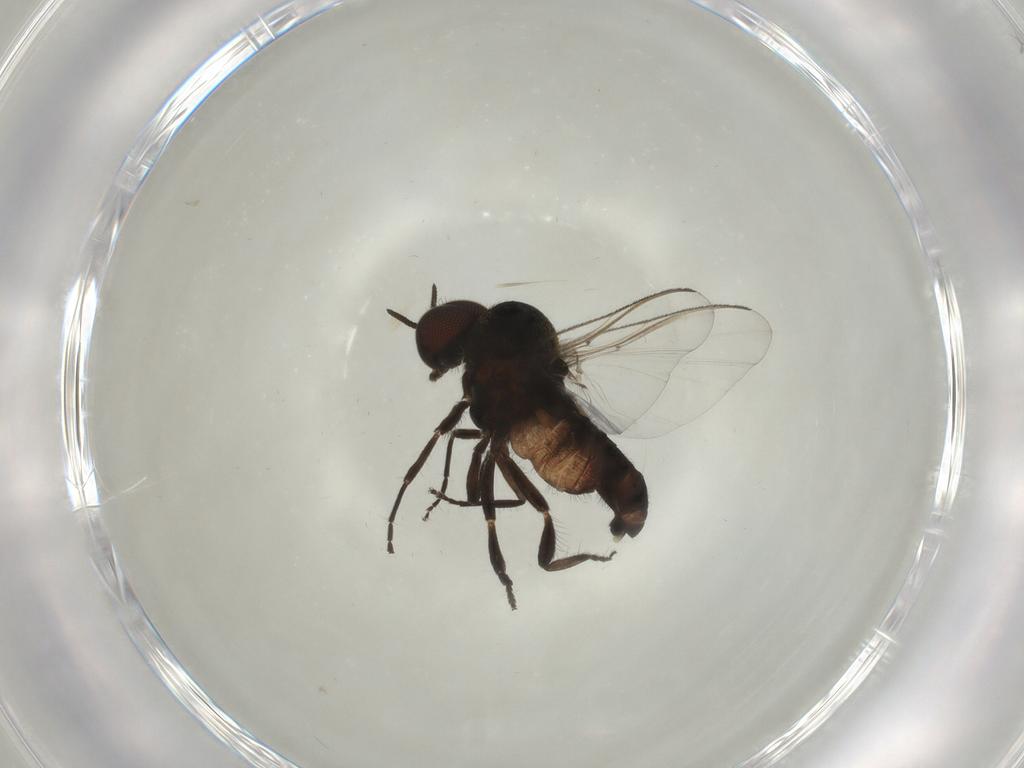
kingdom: Animalia
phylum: Arthropoda
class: Insecta
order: Diptera
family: Simuliidae
